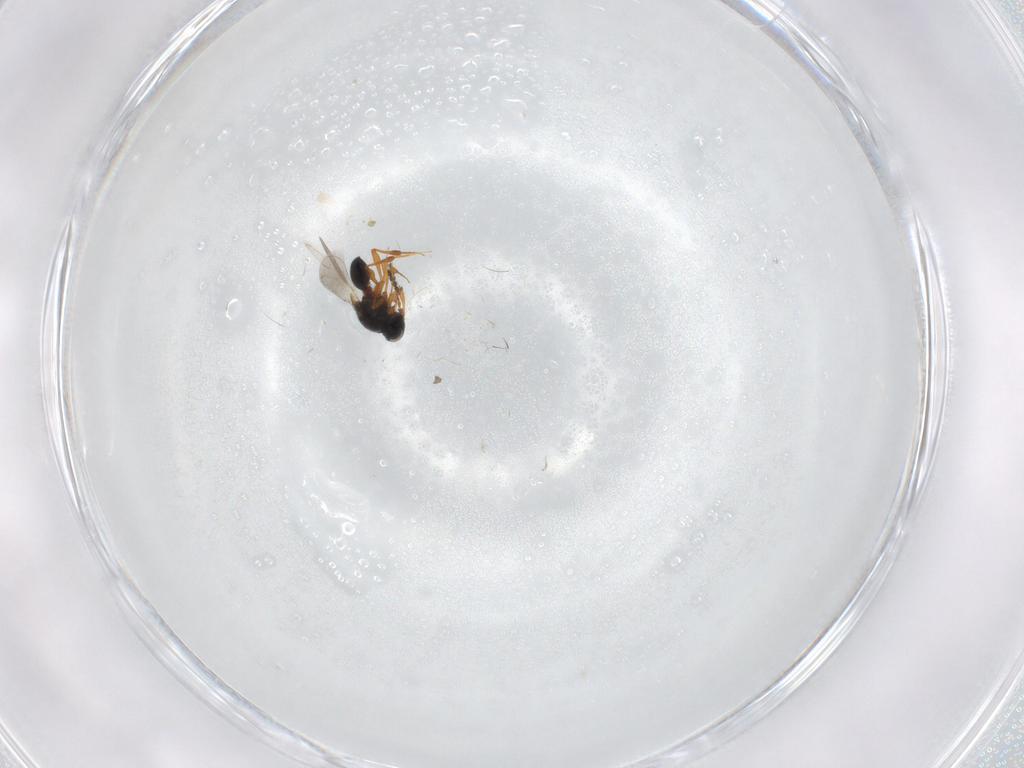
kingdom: Animalia
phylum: Arthropoda
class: Insecta
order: Hymenoptera
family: Platygastridae
